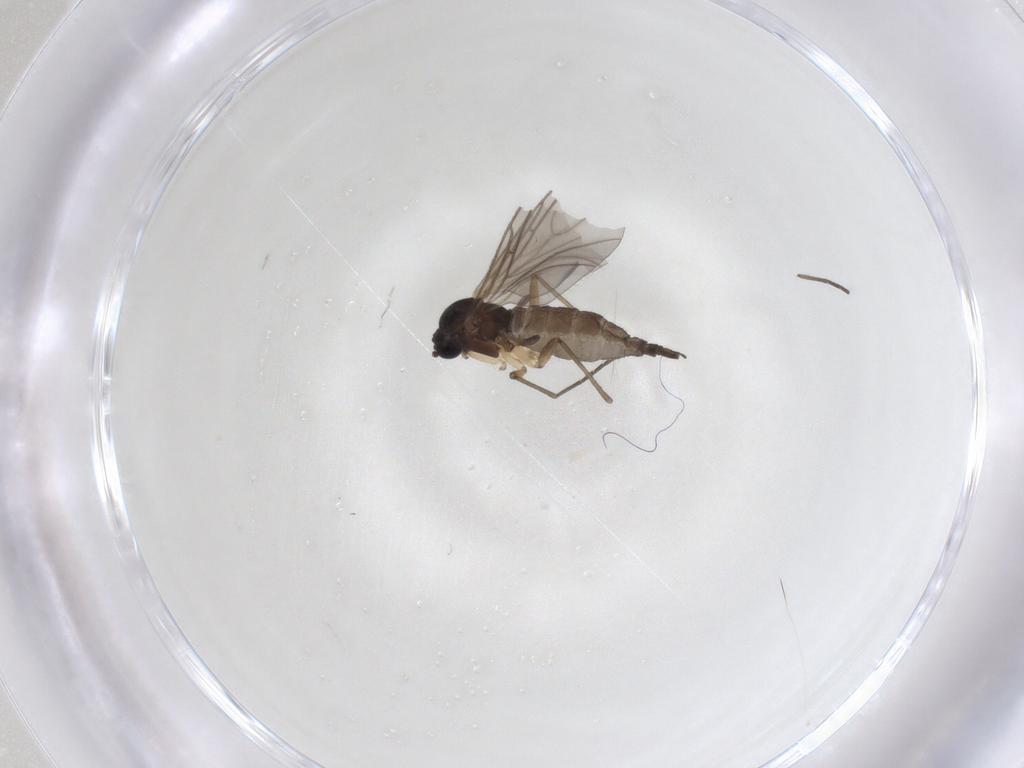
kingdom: Animalia
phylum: Arthropoda
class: Insecta
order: Diptera
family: Sciaridae
